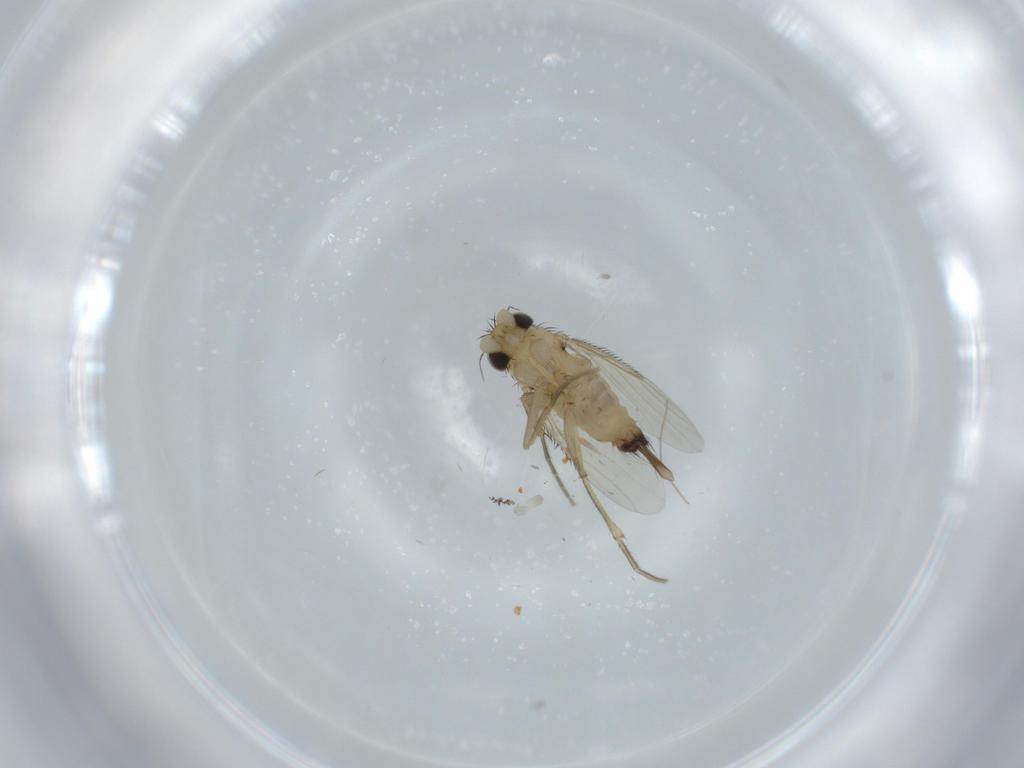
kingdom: Animalia
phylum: Arthropoda
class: Insecta
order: Diptera
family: Phoridae
